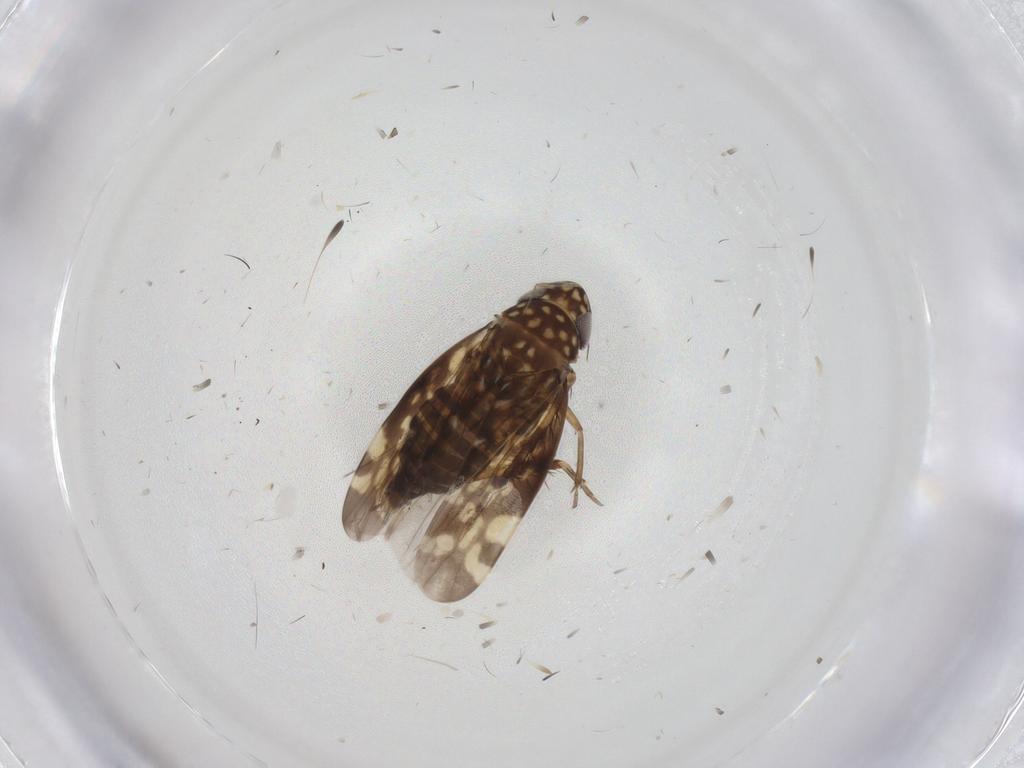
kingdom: Animalia
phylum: Arthropoda
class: Insecta
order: Hemiptera
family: Cicadellidae
